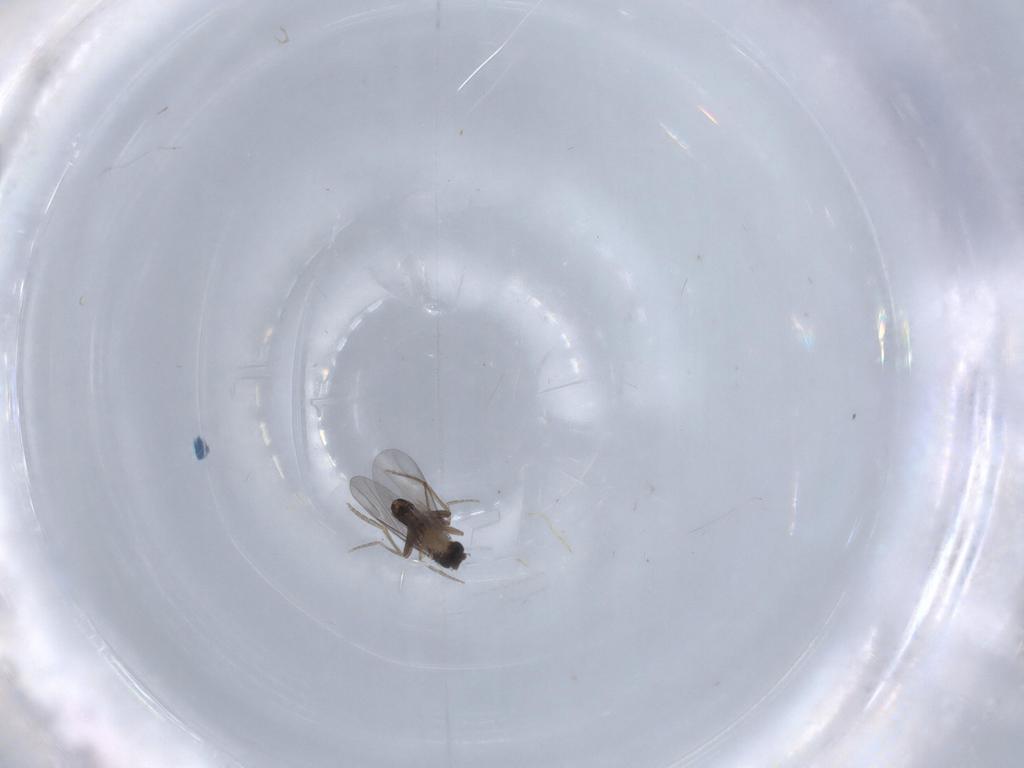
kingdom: Animalia
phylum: Arthropoda
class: Insecta
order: Diptera
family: Chironomidae
